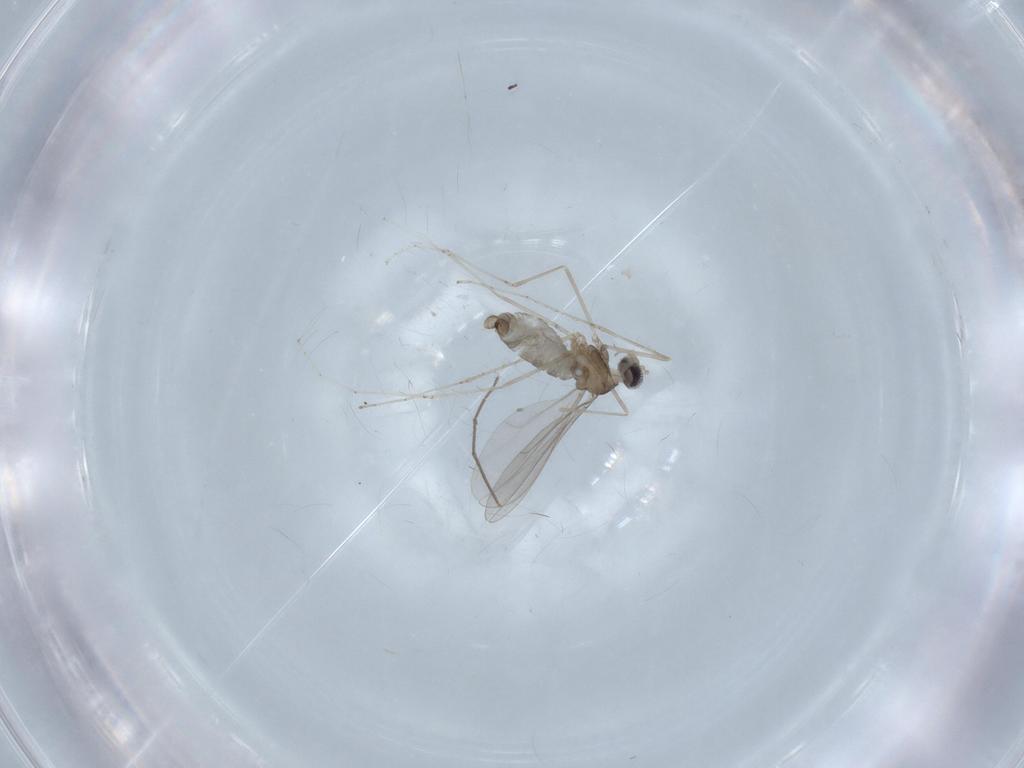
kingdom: Animalia
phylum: Arthropoda
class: Insecta
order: Diptera
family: Chironomidae
